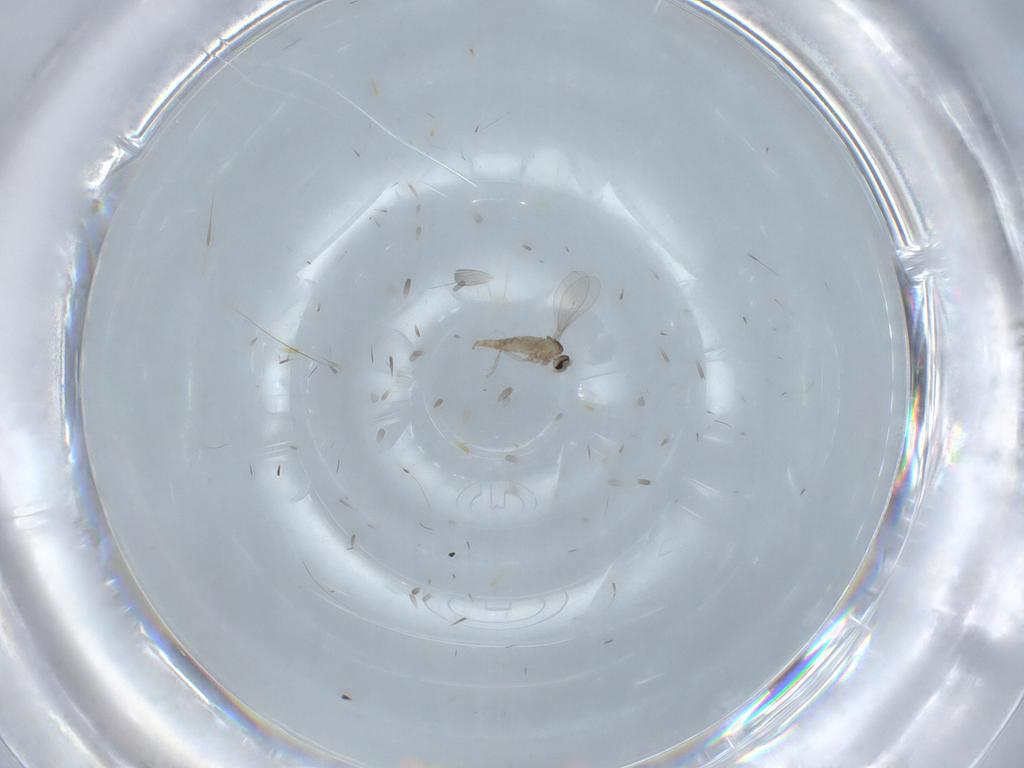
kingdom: Animalia
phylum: Arthropoda
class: Insecta
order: Diptera
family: Cecidomyiidae
